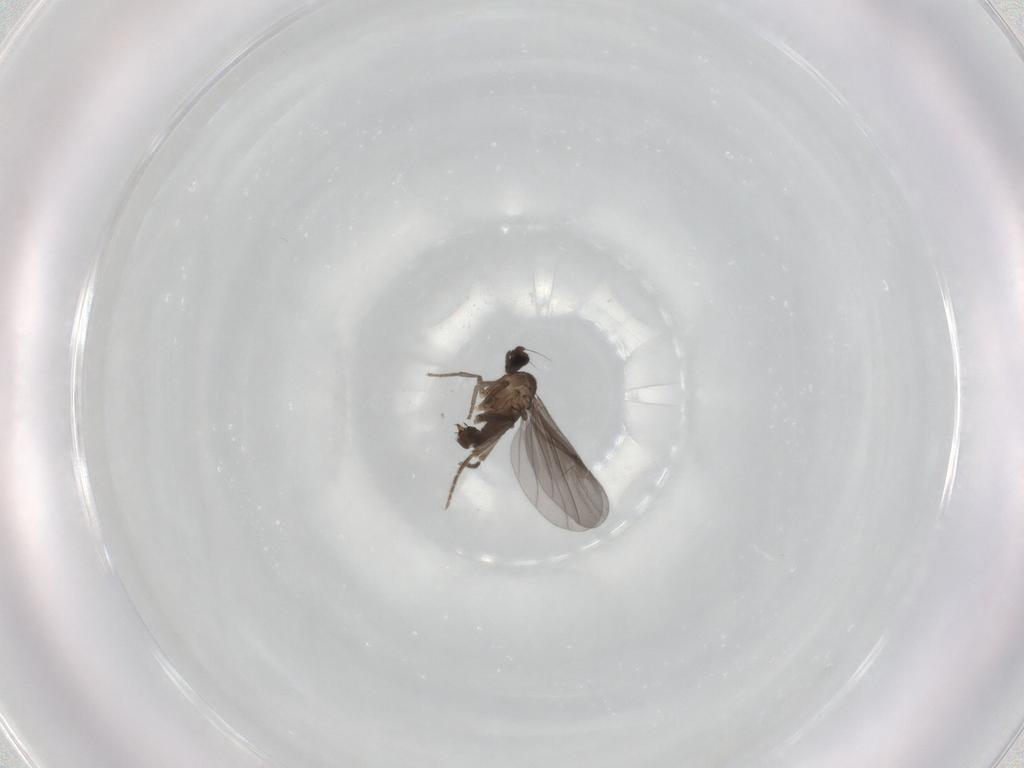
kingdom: Animalia
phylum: Arthropoda
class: Insecta
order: Diptera
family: Phoridae
